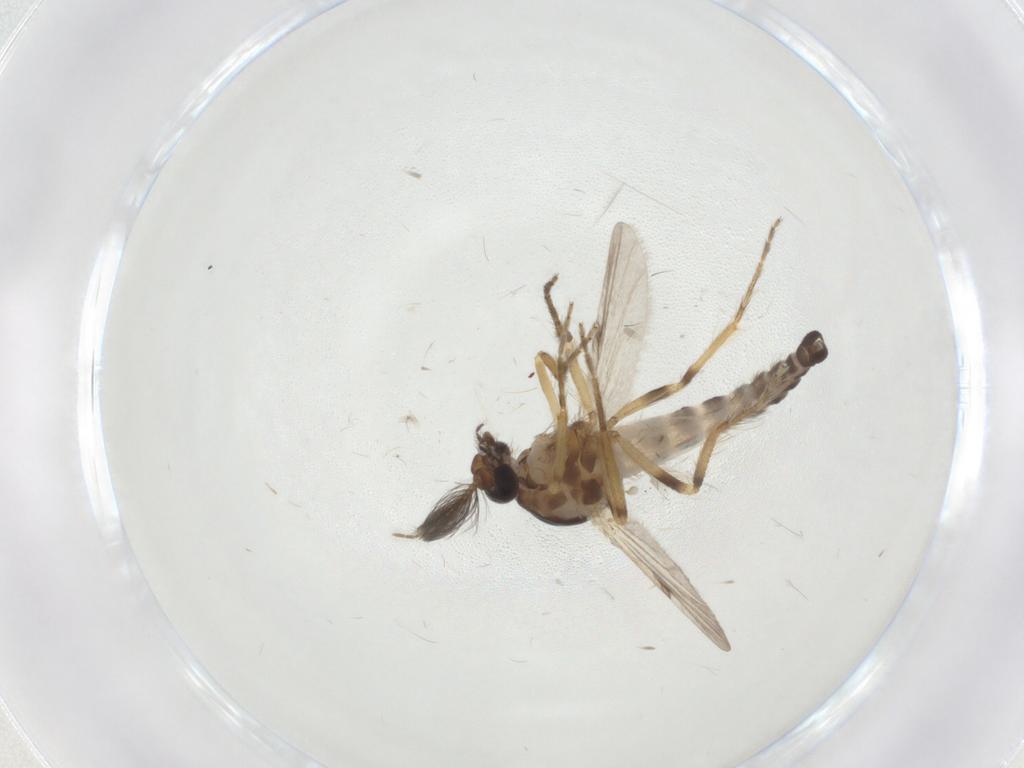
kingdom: Animalia
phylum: Arthropoda
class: Insecta
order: Diptera
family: Ceratopogonidae
